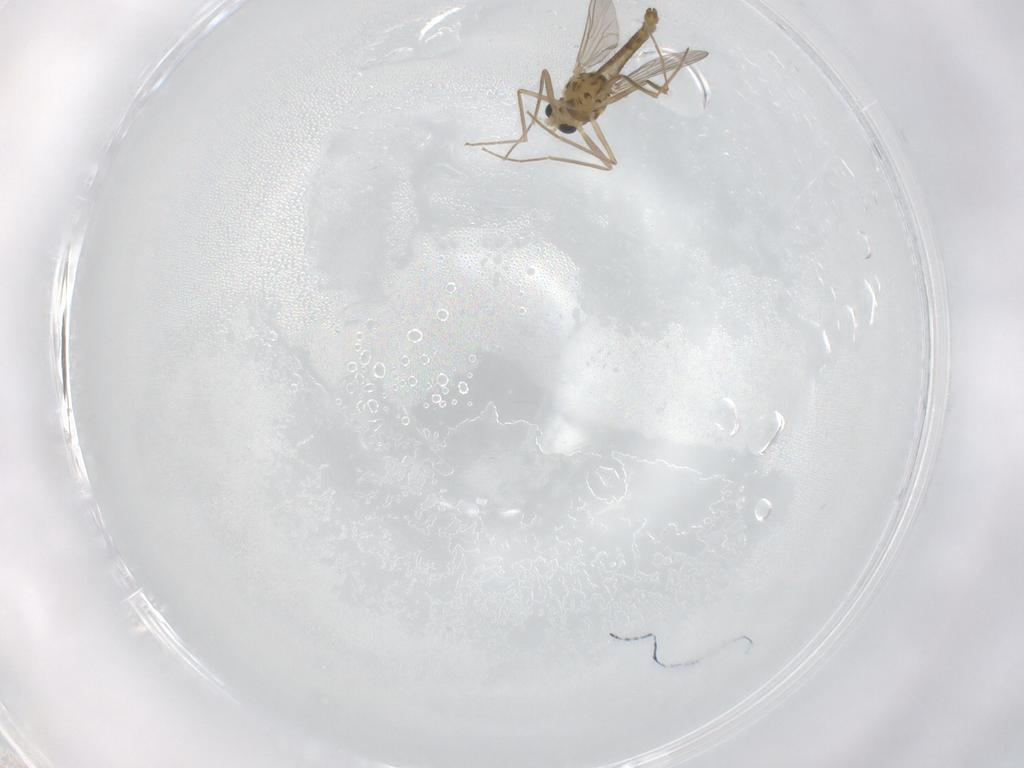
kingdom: Animalia
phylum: Arthropoda
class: Insecta
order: Diptera
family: Chironomidae
